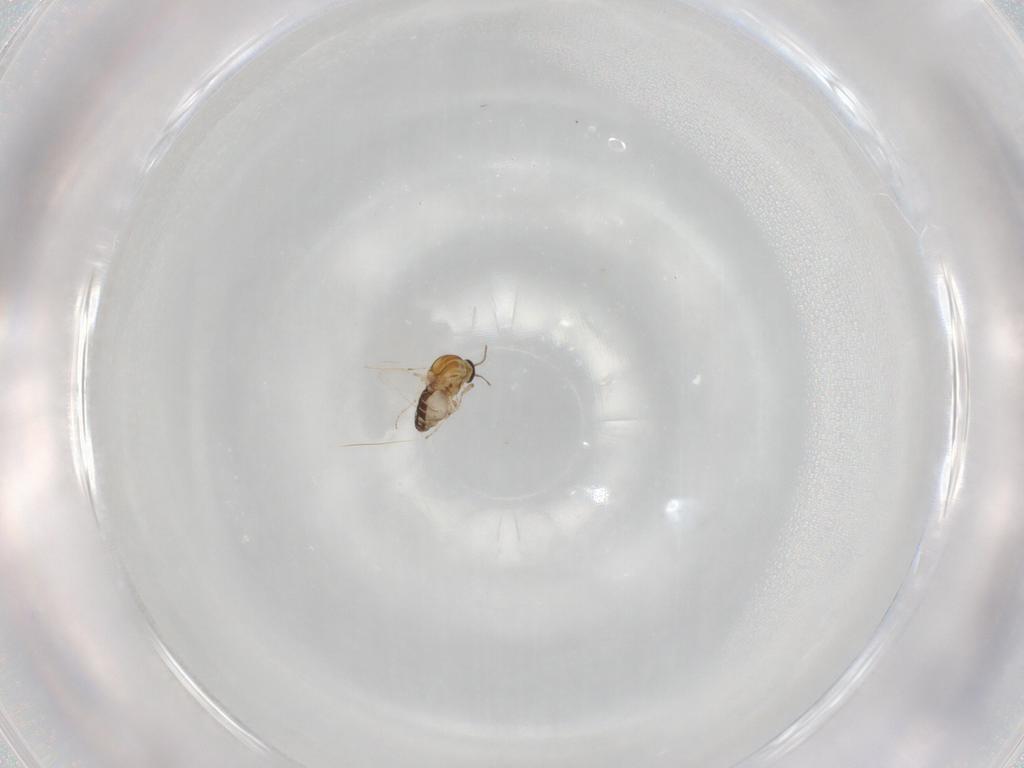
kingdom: Animalia
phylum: Arthropoda
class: Insecta
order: Diptera
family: Ceratopogonidae
